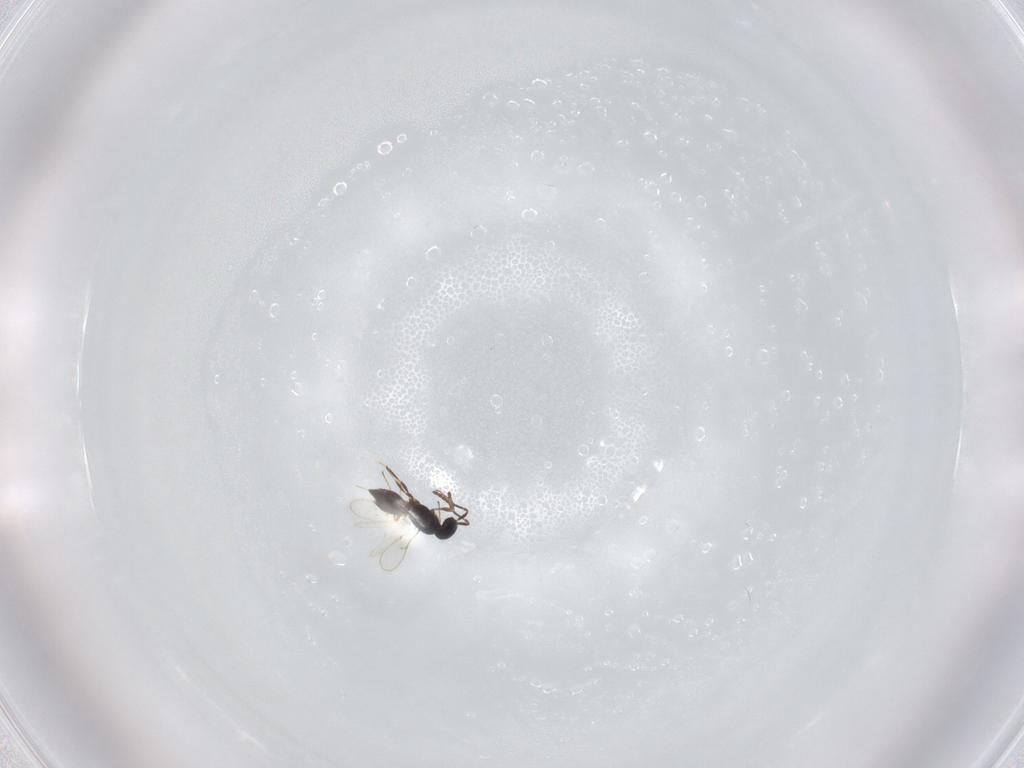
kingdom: Animalia
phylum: Arthropoda
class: Insecta
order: Hymenoptera
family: Scelionidae
